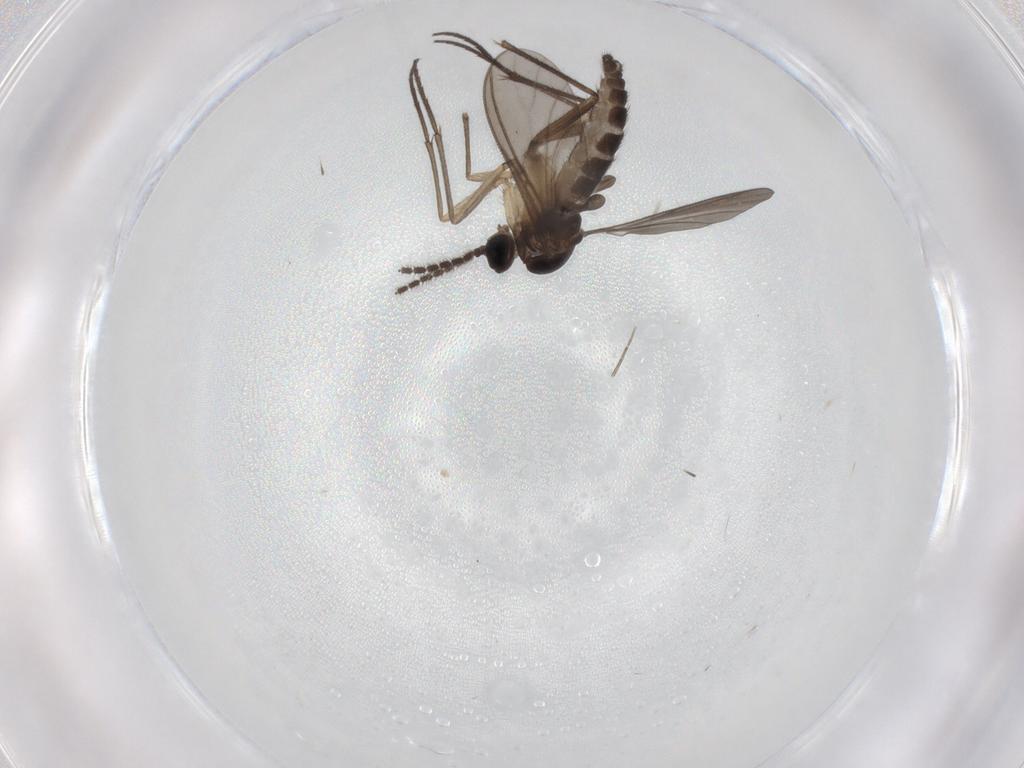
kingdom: Animalia
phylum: Arthropoda
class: Insecta
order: Diptera
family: Sciaridae
